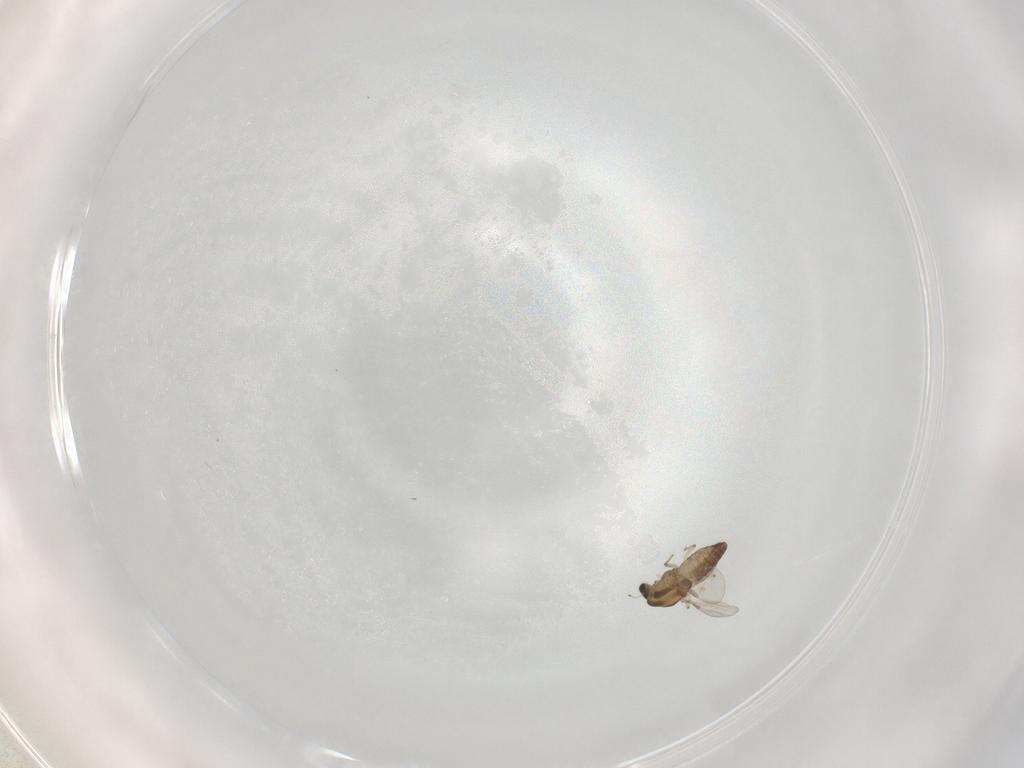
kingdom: Animalia
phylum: Arthropoda
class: Insecta
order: Diptera
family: Chironomidae
